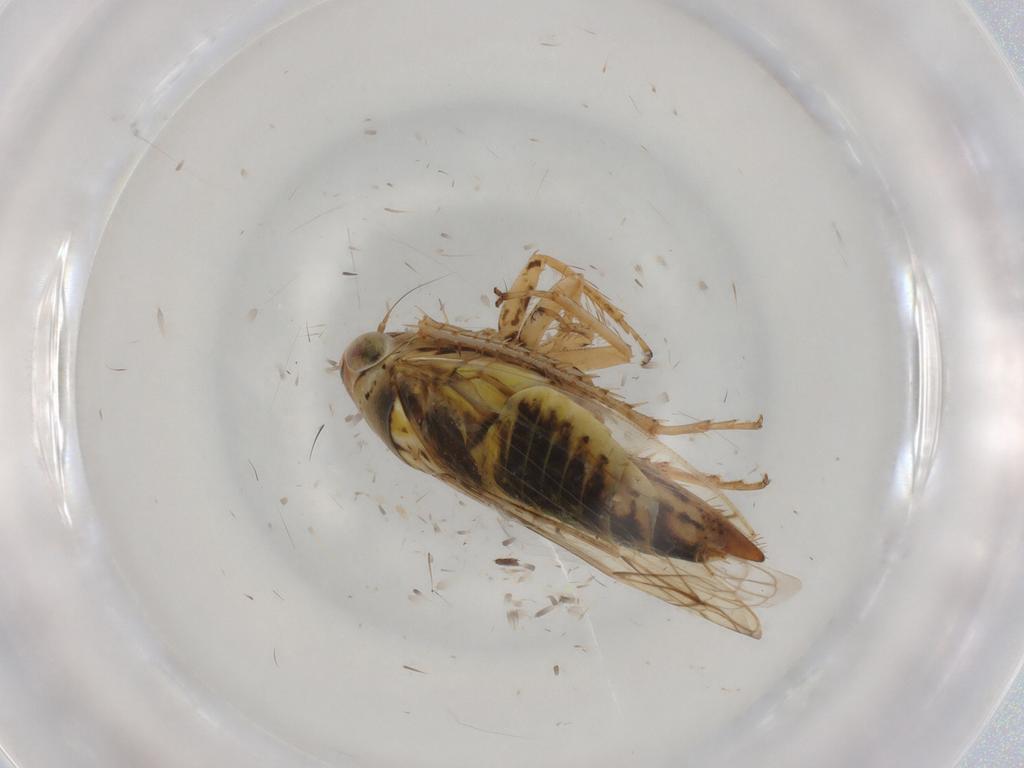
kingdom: Animalia
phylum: Arthropoda
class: Insecta
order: Hemiptera
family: Cicadellidae
